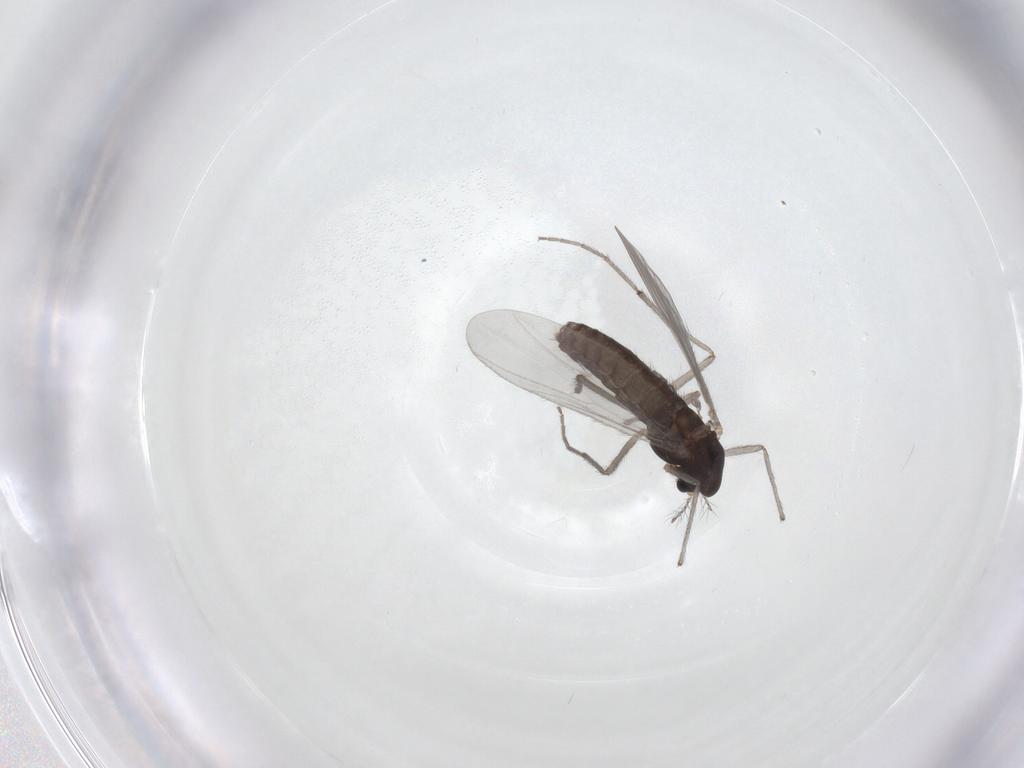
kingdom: Animalia
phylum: Arthropoda
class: Insecta
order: Diptera
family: Chironomidae
